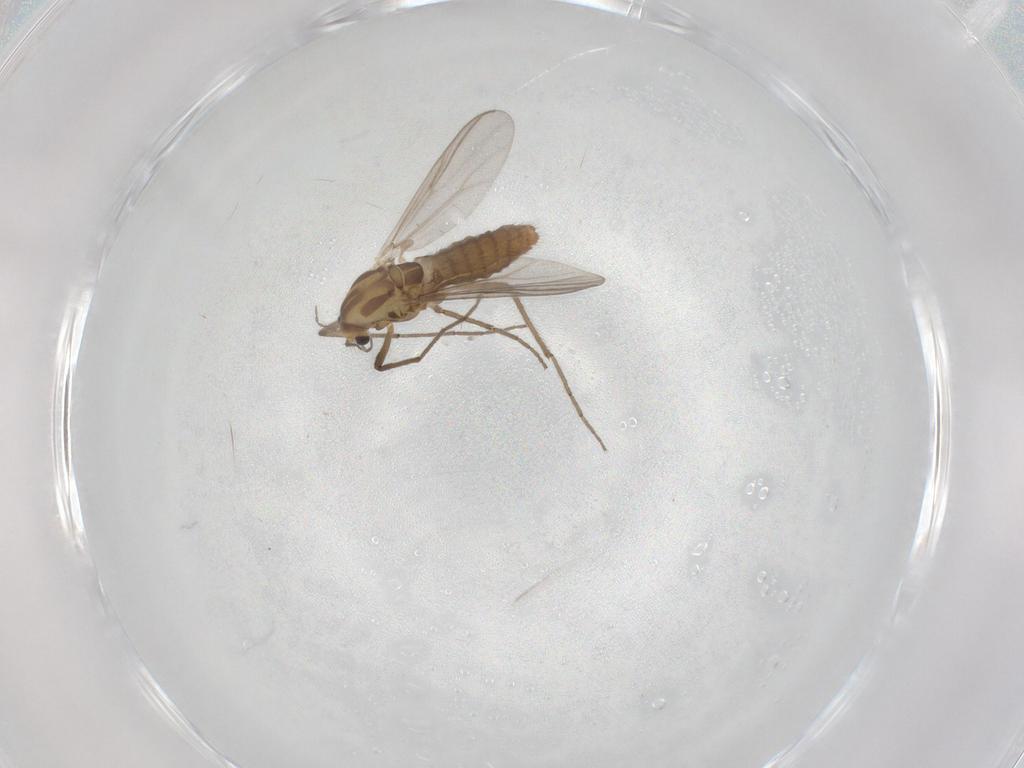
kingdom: Animalia
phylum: Arthropoda
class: Insecta
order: Diptera
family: Chironomidae
